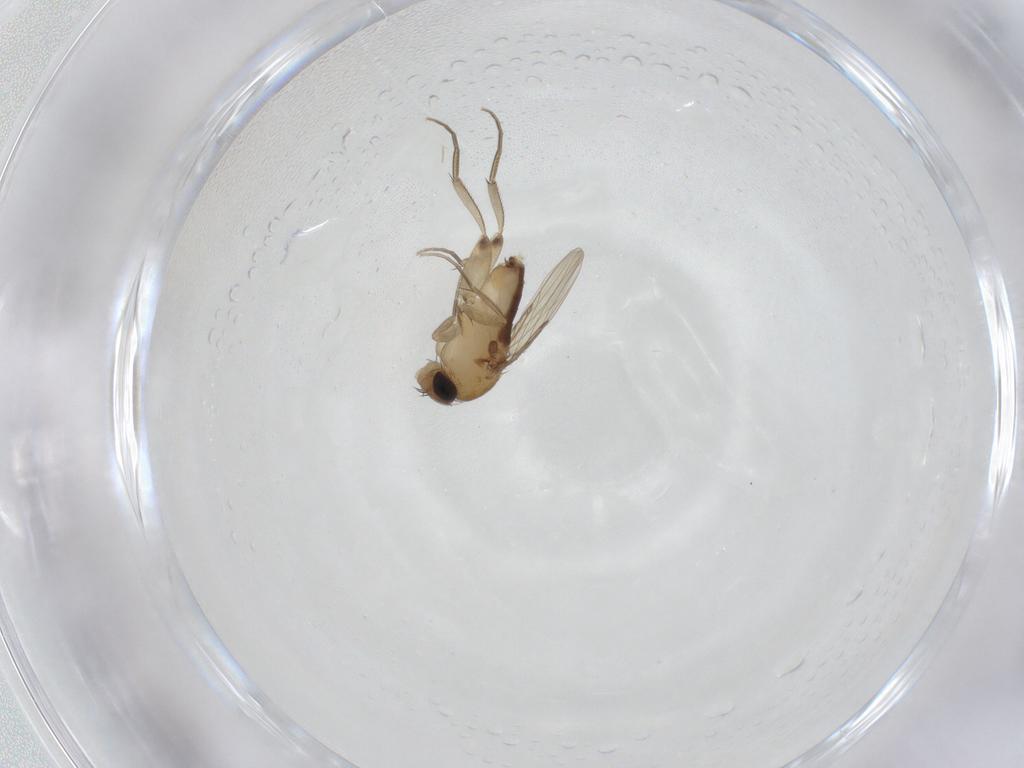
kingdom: Animalia
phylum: Arthropoda
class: Insecta
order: Diptera
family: Phoridae
